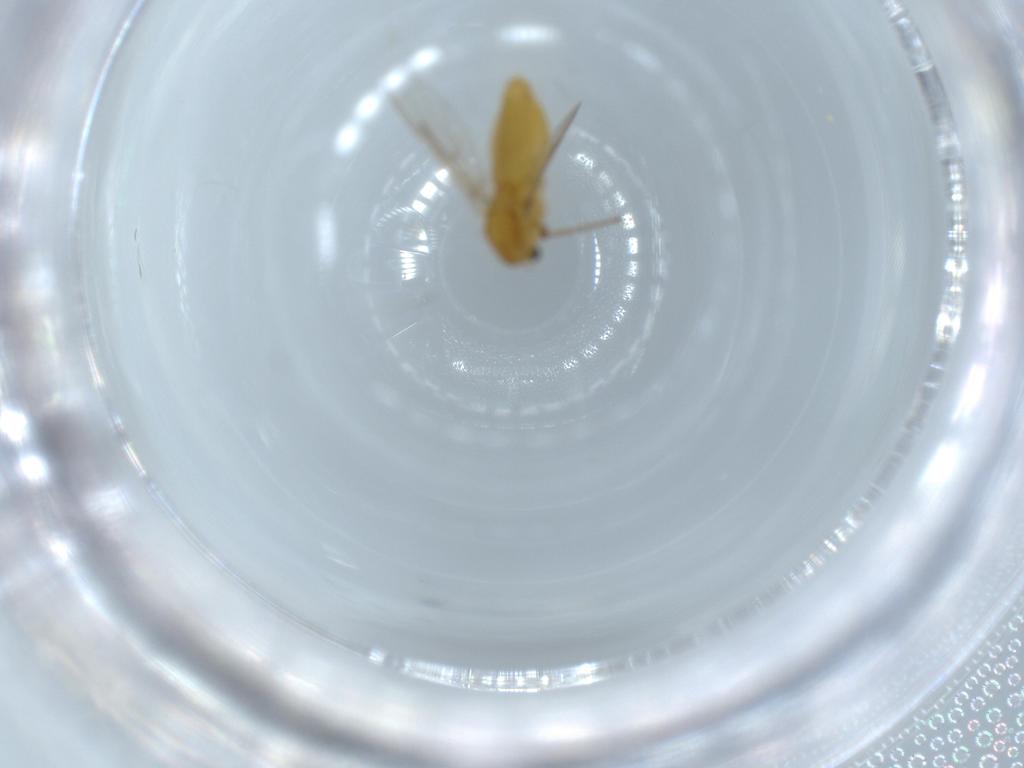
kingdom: Animalia
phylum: Arthropoda
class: Insecta
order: Diptera
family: Chironomidae
